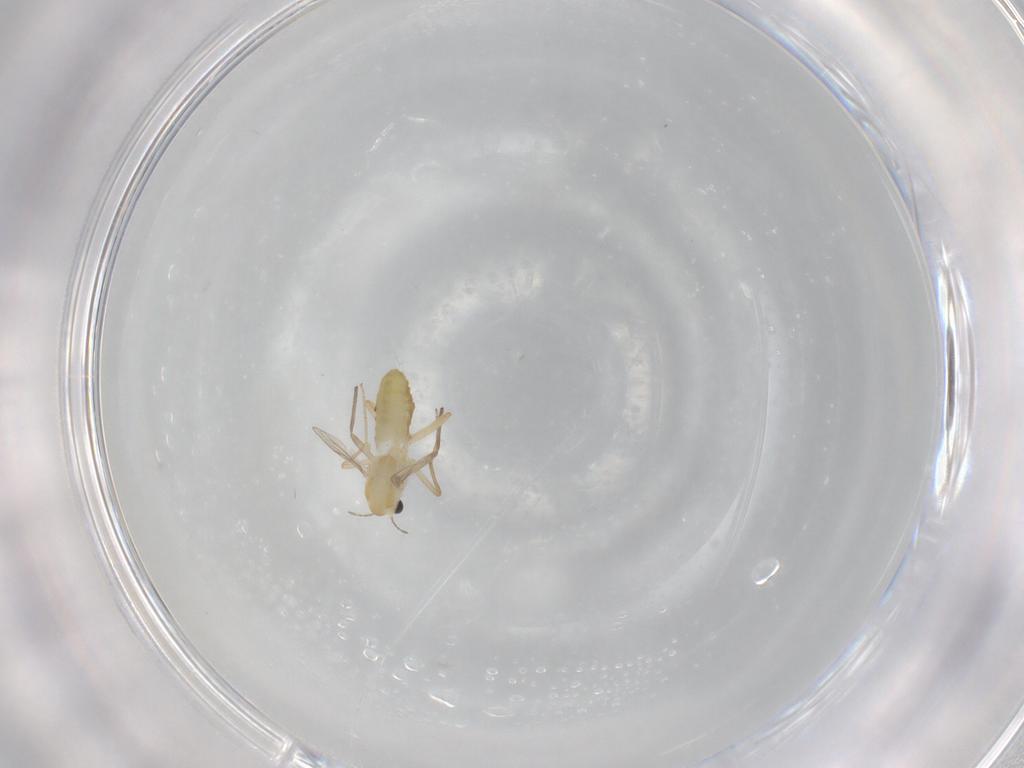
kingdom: Animalia
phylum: Arthropoda
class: Insecta
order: Diptera
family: Chironomidae
